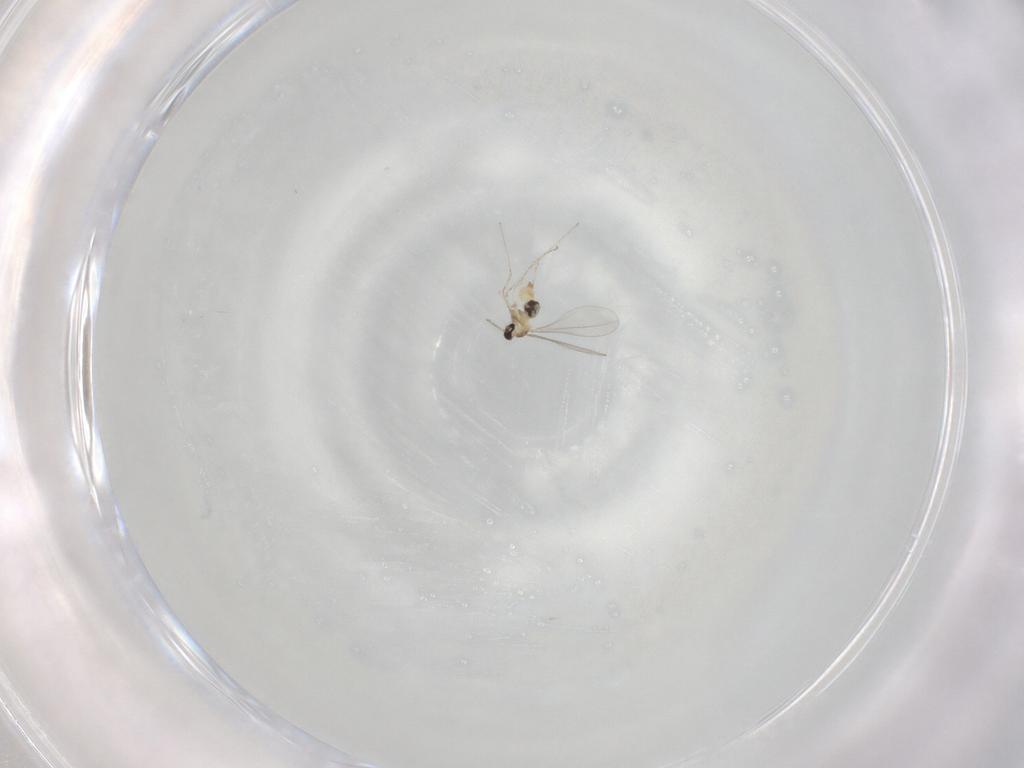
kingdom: Animalia
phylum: Arthropoda
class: Insecta
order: Diptera
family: Cecidomyiidae
